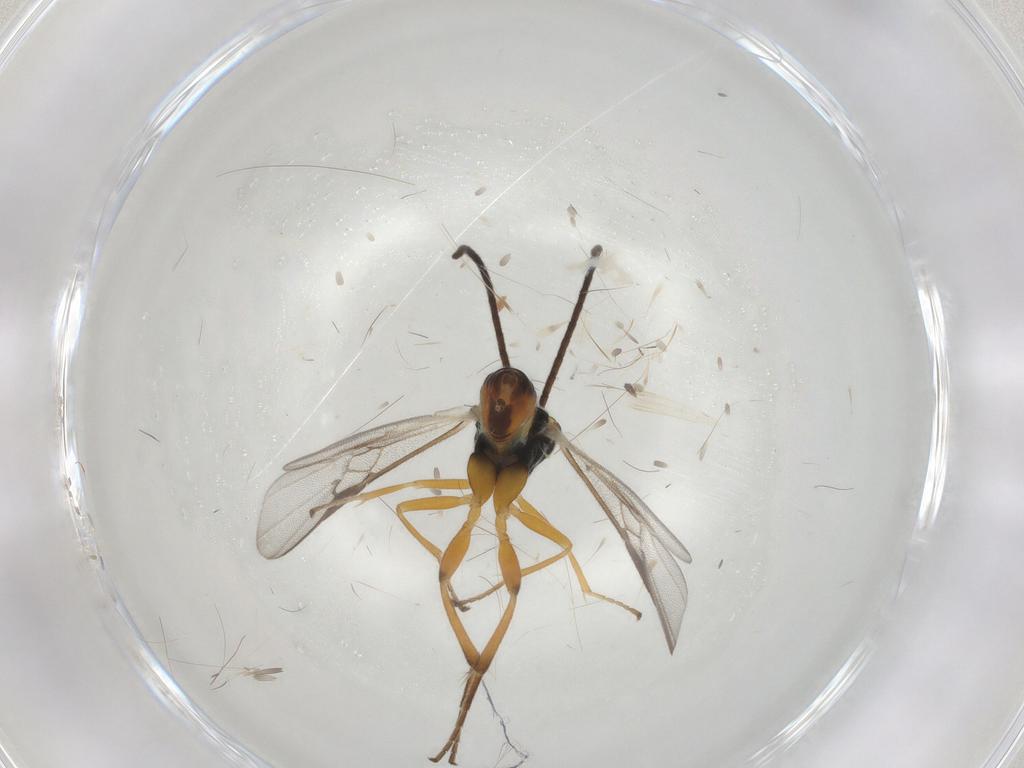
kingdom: Animalia
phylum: Arthropoda
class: Insecta
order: Hymenoptera
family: Braconidae
